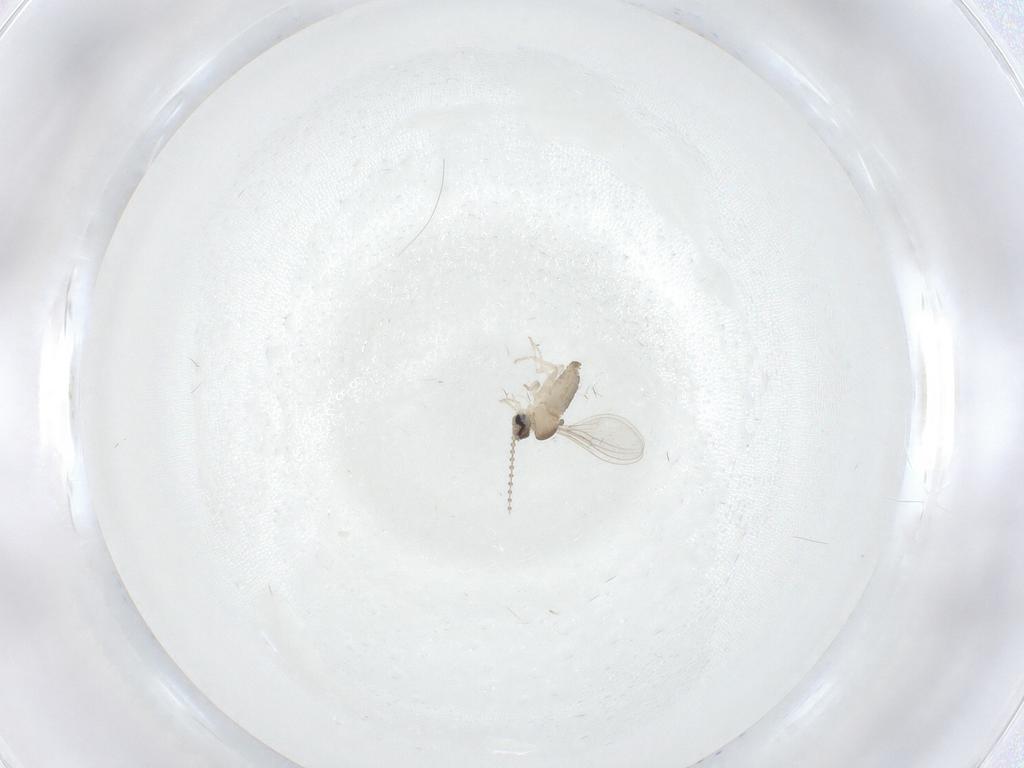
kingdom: Animalia
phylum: Arthropoda
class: Insecta
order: Diptera
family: Cecidomyiidae
